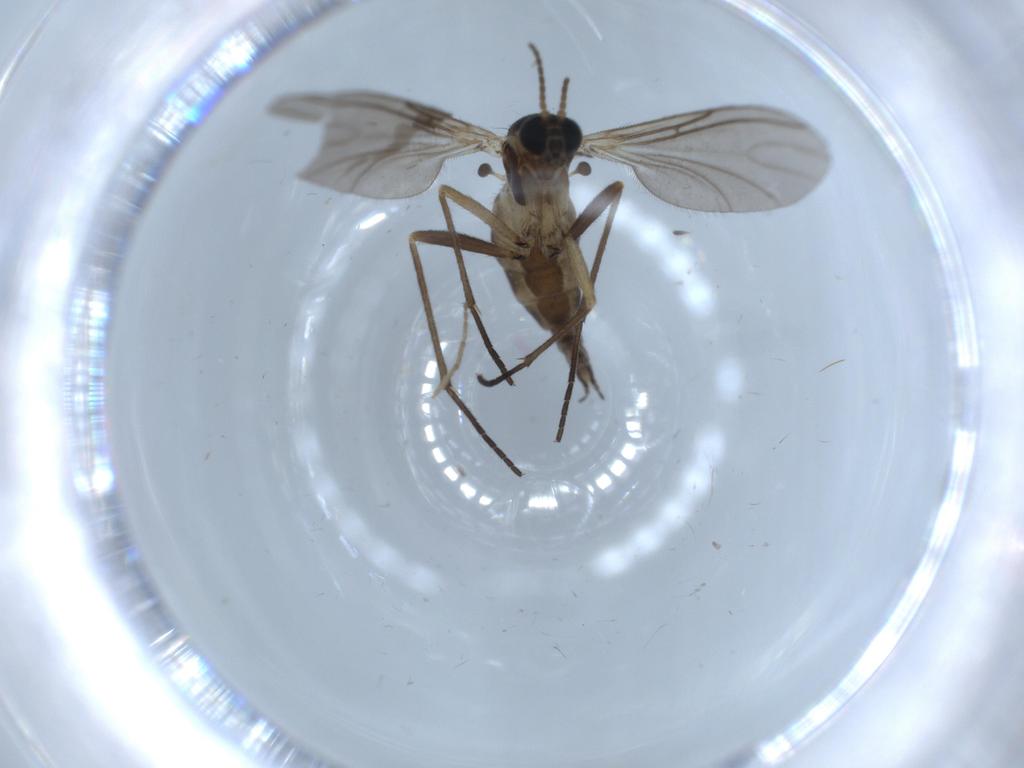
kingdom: Animalia
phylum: Arthropoda
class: Insecta
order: Diptera
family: Sciaridae
